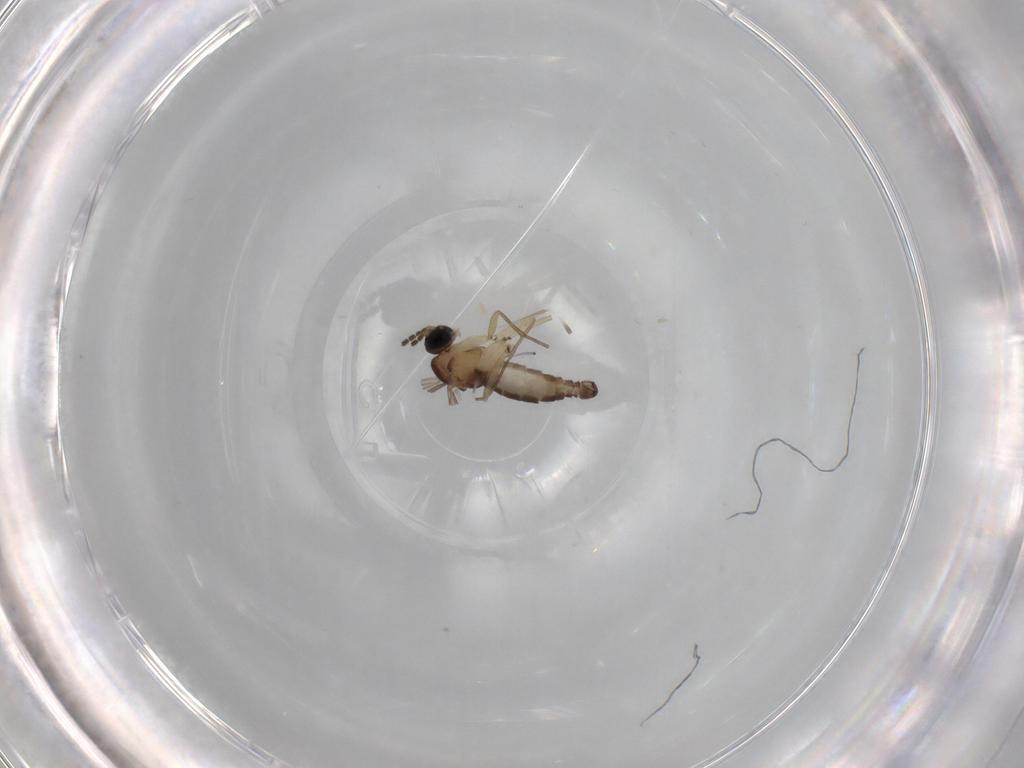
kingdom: Animalia
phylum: Arthropoda
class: Insecta
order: Diptera
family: Sciaridae
